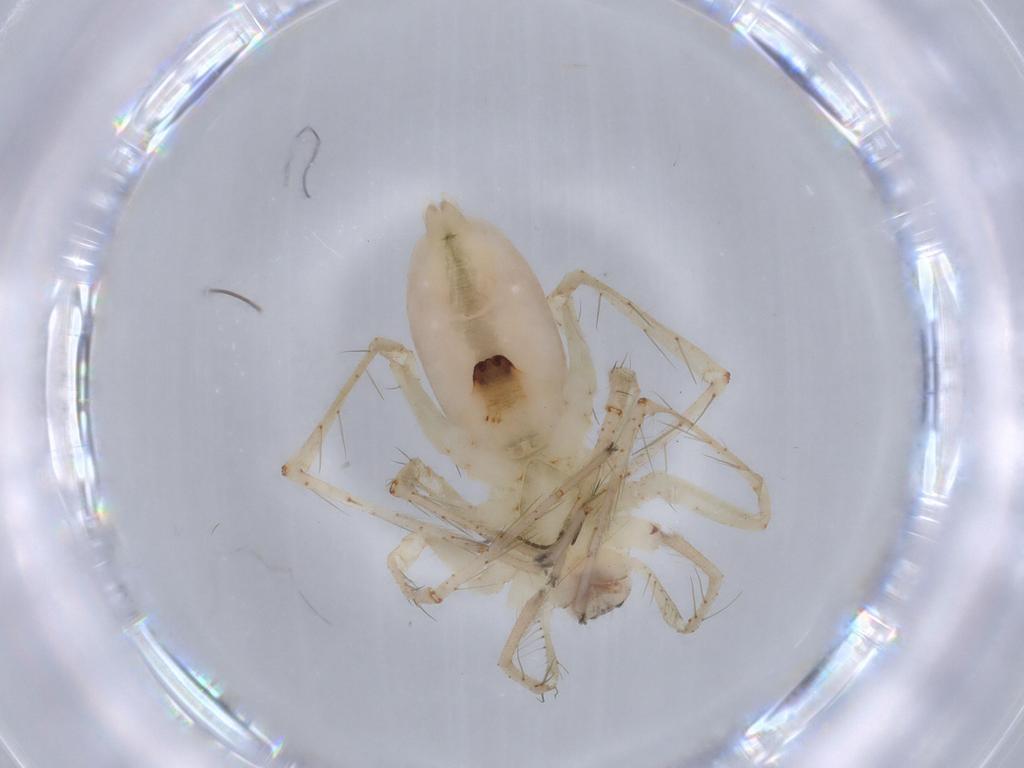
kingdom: Animalia
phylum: Arthropoda
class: Arachnida
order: Araneae
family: Anyphaenidae
